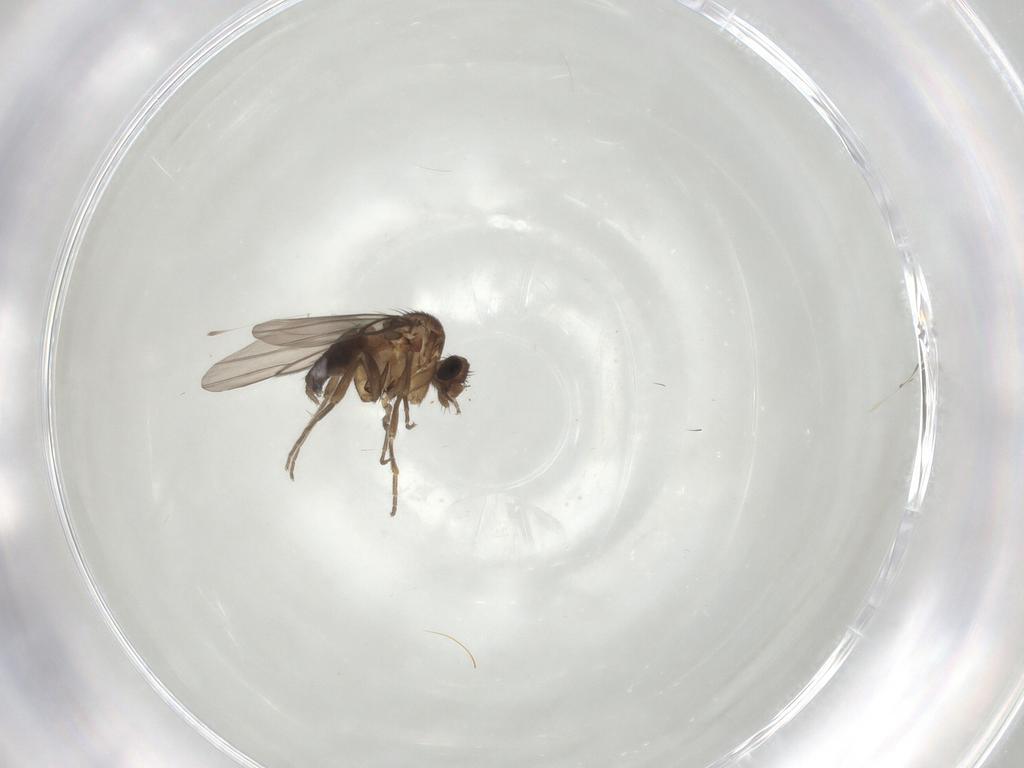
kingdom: Animalia
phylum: Arthropoda
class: Insecta
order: Diptera
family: Phoridae
